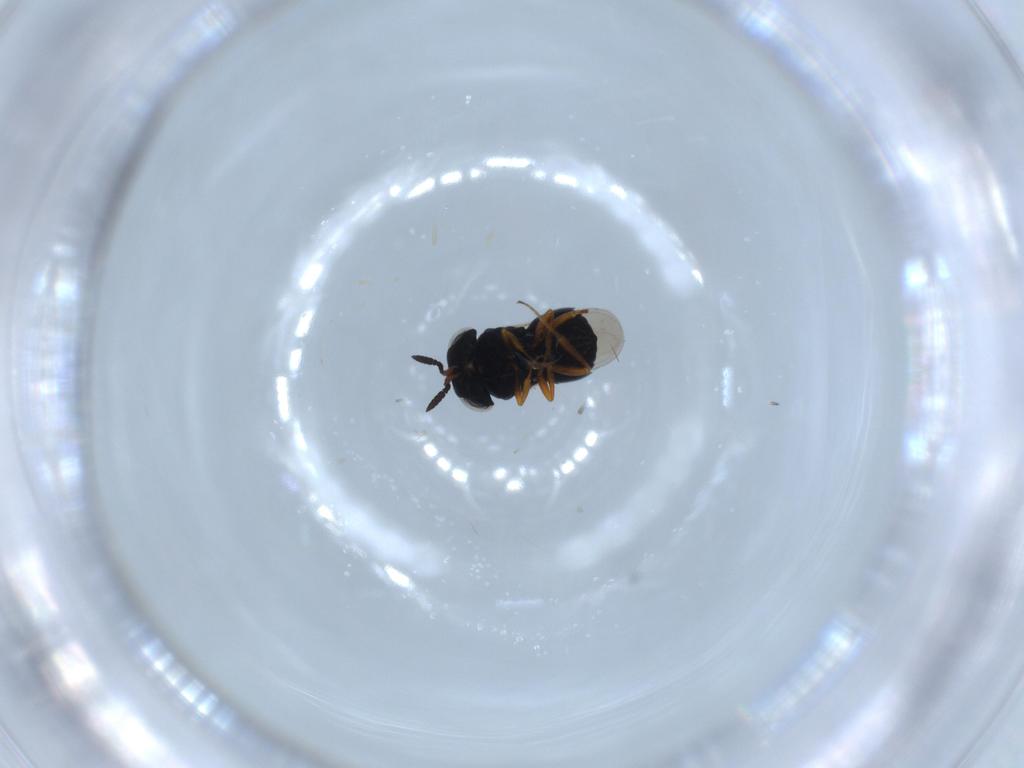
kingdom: Animalia
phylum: Arthropoda
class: Insecta
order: Hymenoptera
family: Scelionidae
